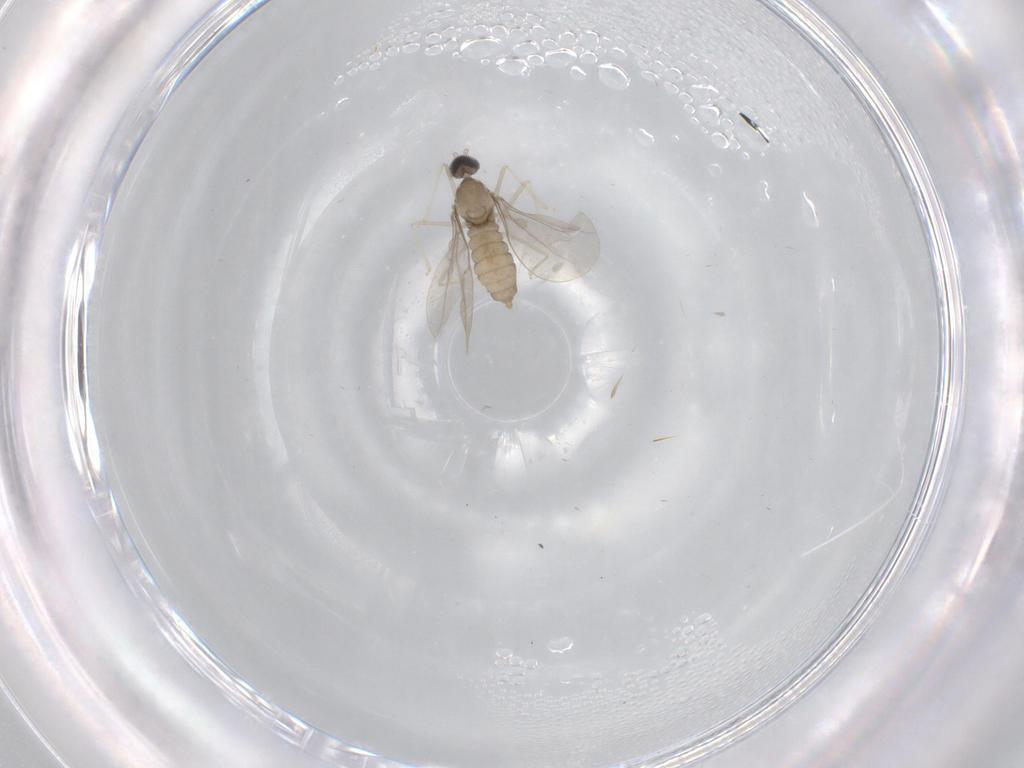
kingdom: Animalia
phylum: Arthropoda
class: Insecta
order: Diptera
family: Cecidomyiidae
